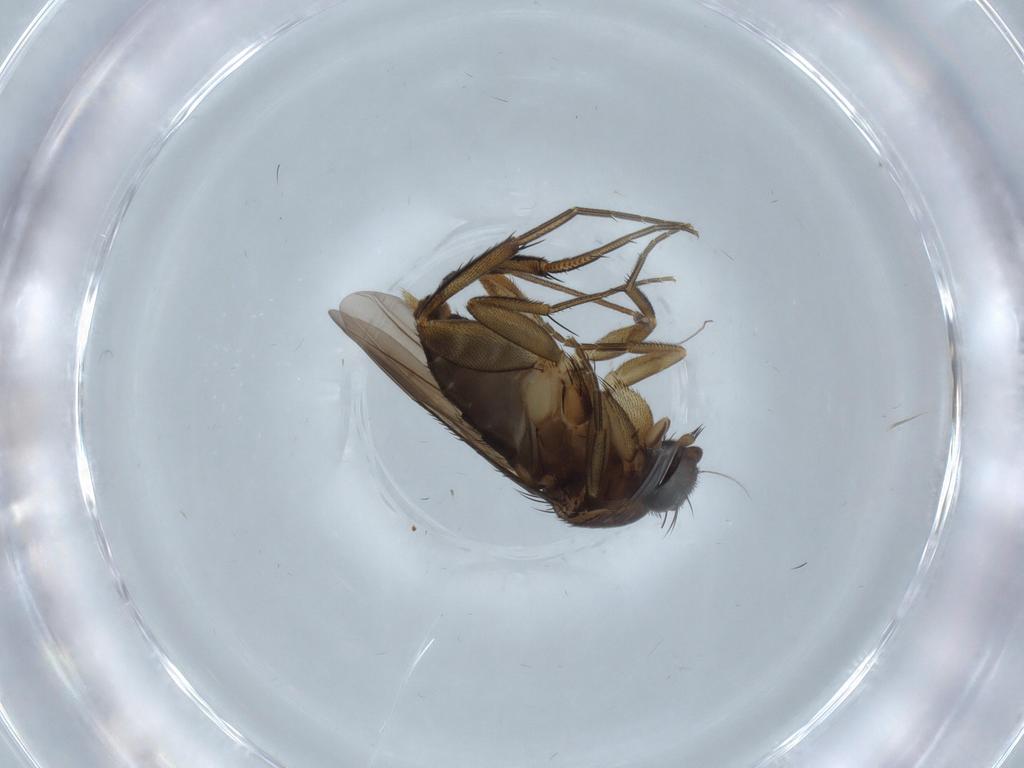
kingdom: Animalia
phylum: Arthropoda
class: Insecta
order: Diptera
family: Phoridae
